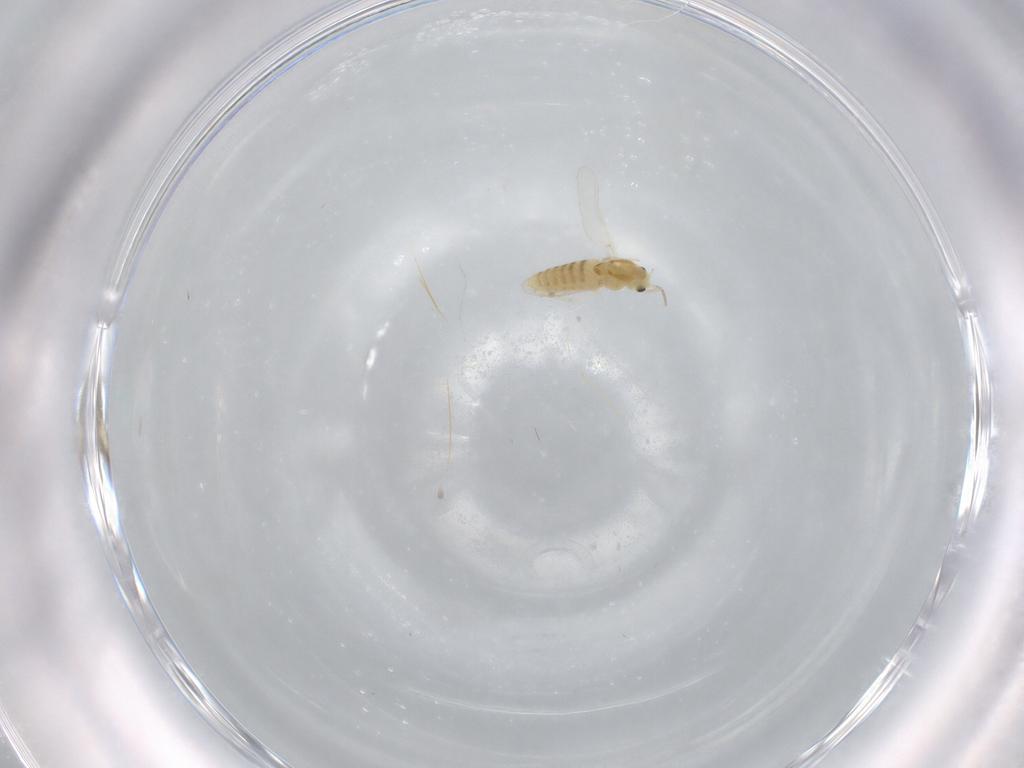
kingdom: Animalia
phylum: Arthropoda
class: Insecta
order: Diptera
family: Chironomidae
